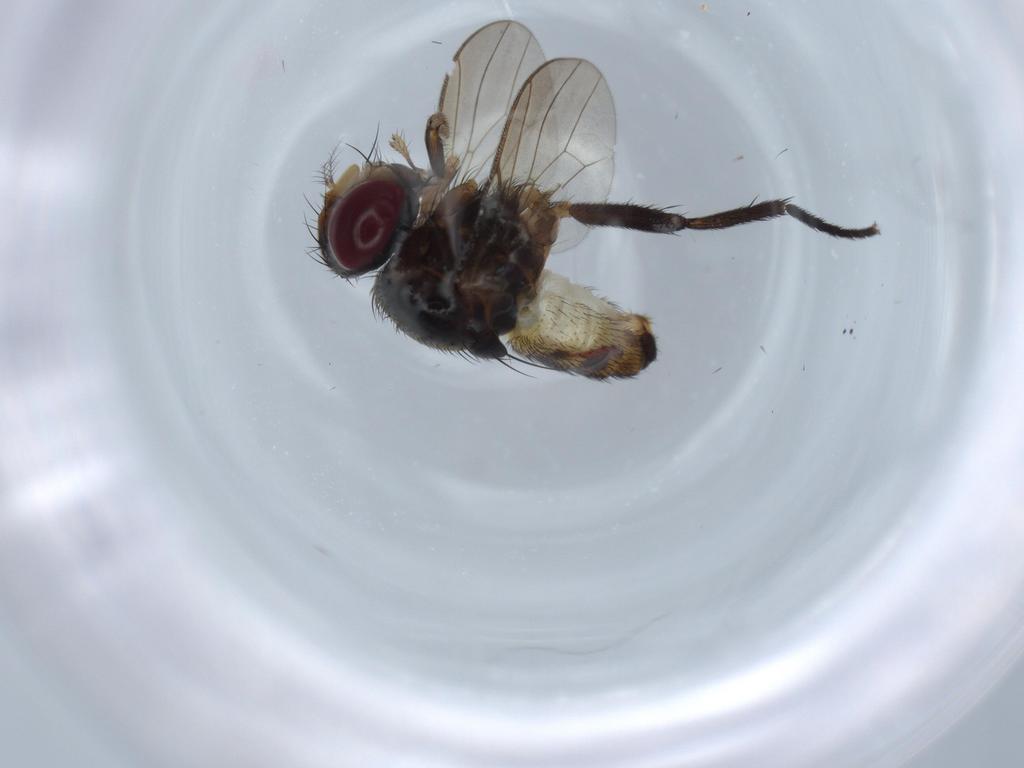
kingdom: Animalia
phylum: Arthropoda
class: Insecta
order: Diptera
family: Anthomyiidae
